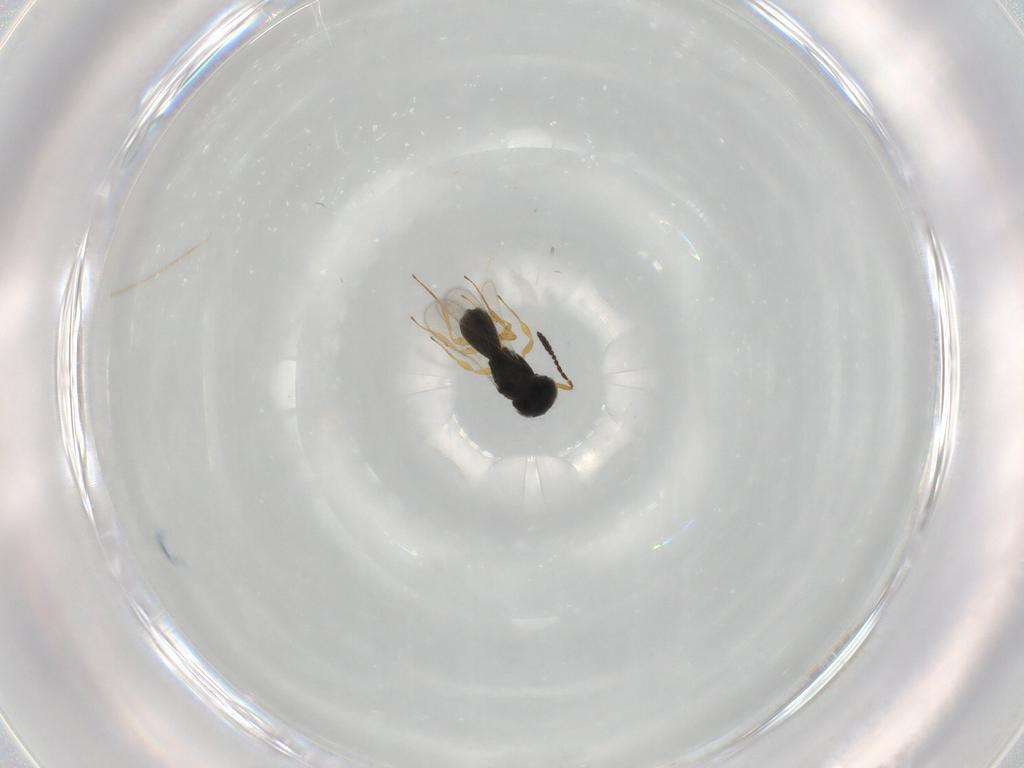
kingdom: Animalia
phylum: Arthropoda
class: Insecta
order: Hymenoptera
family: Scelionidae
